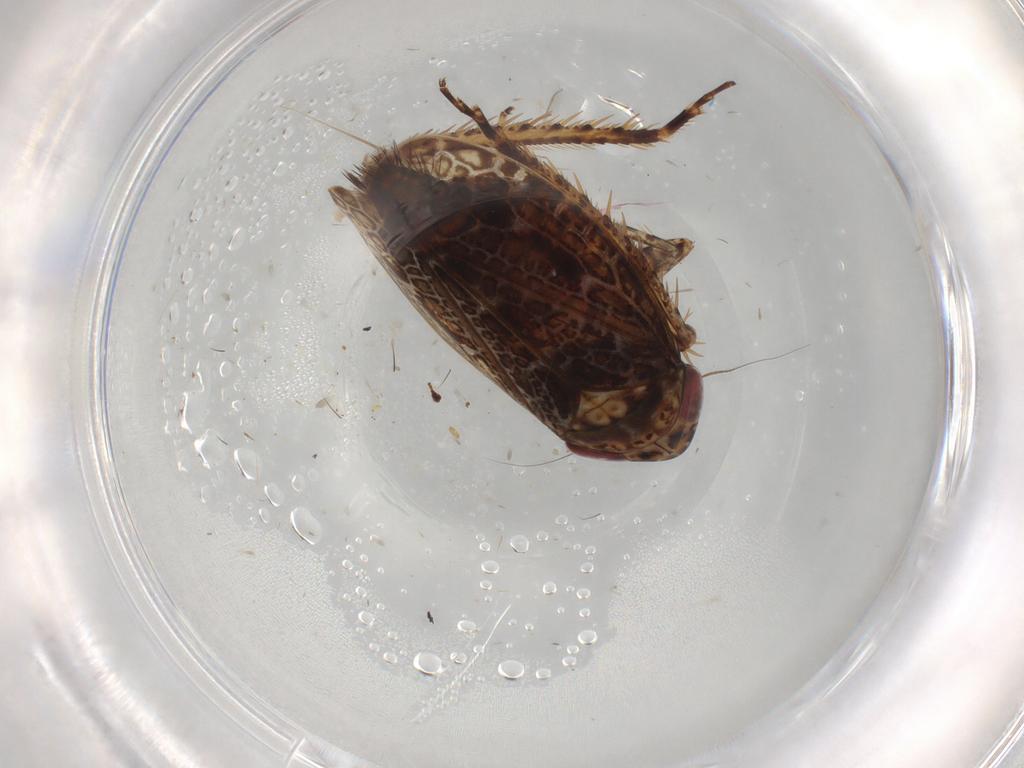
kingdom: Animalia
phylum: Arthropoda
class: Insecta
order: Hemiptera
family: Cicadellidae
